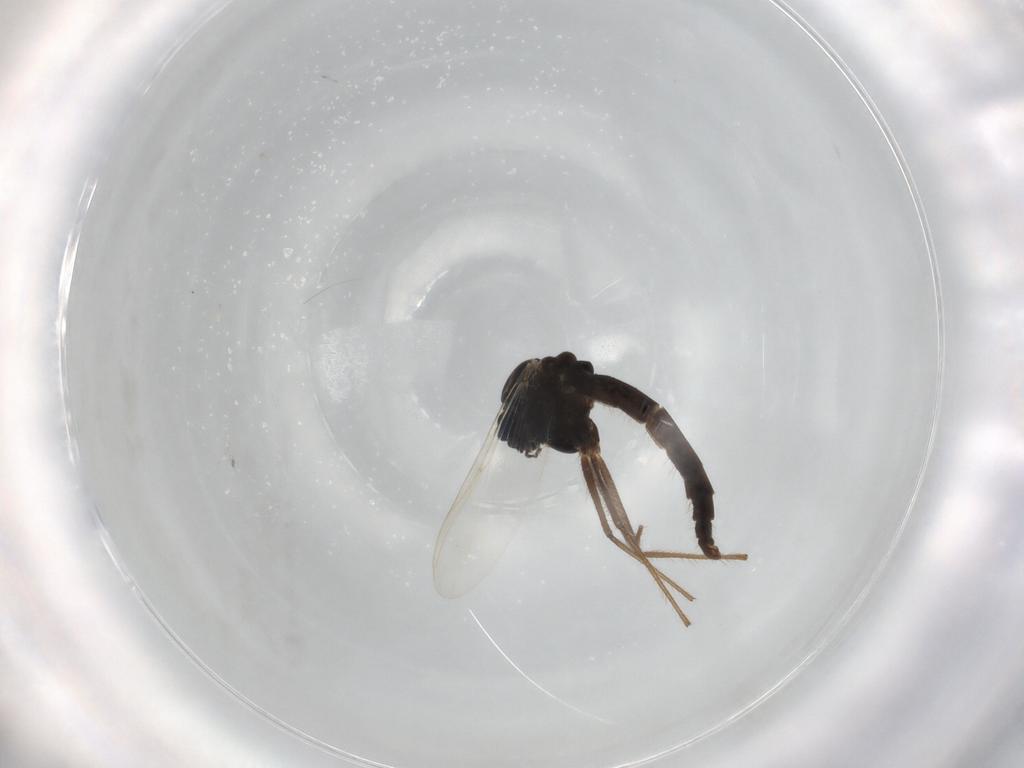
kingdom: Animalia
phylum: Arthropoda
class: Insecta
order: Diptera
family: Chironomidae
